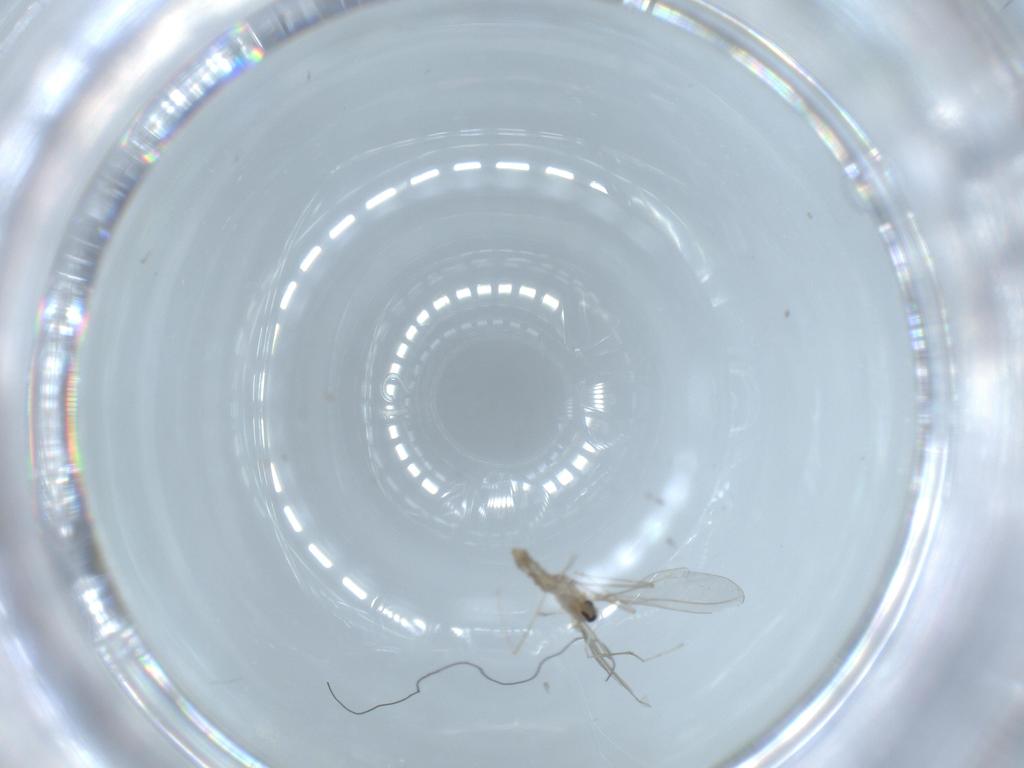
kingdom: Animalia
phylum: Arthropoda
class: Insecta
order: Diptera
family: Cecidomyiidae
